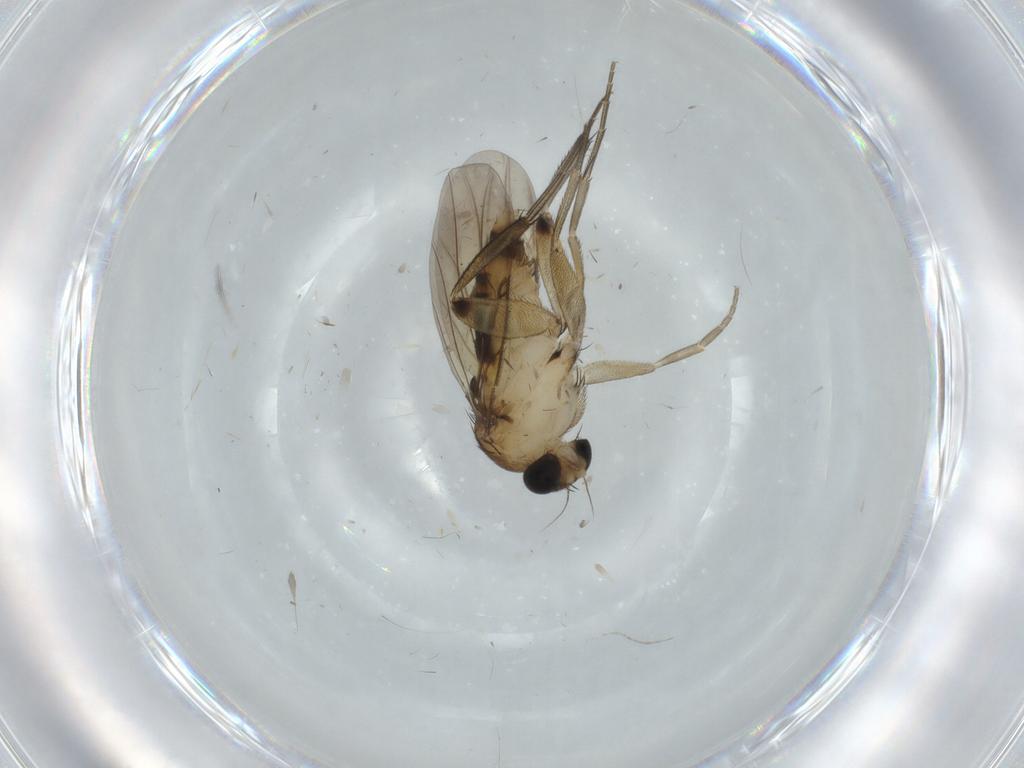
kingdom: Animalia
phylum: Arthropoda
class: Insecta
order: Diptera
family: Cecidomyiidae
